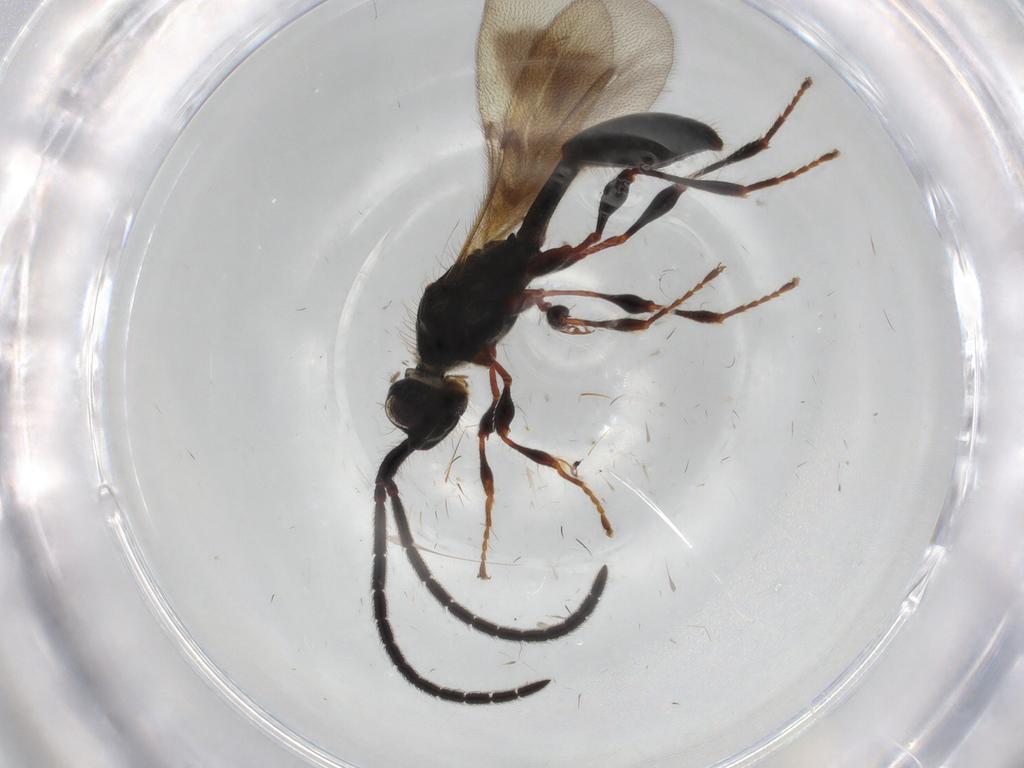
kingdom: Animalia
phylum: Arthropoda
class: Insecta
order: Hymenoptera
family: Diapriidae
